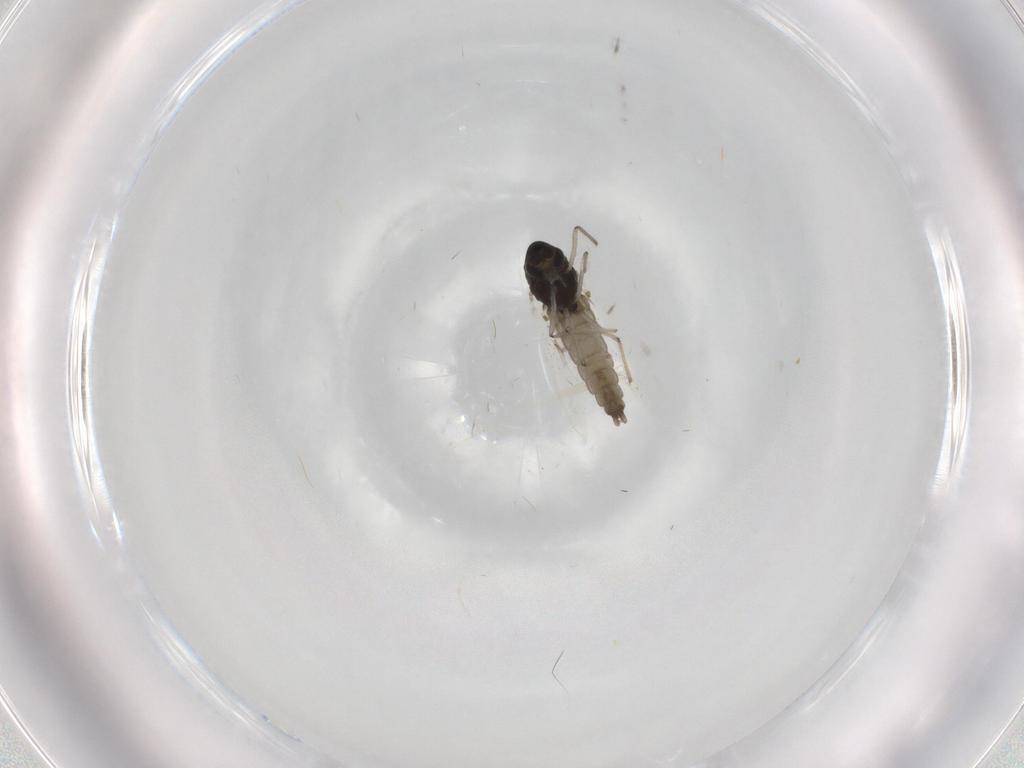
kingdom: Animalia
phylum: Arthropoda
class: Insecta
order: Diptera
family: Chironomidae
